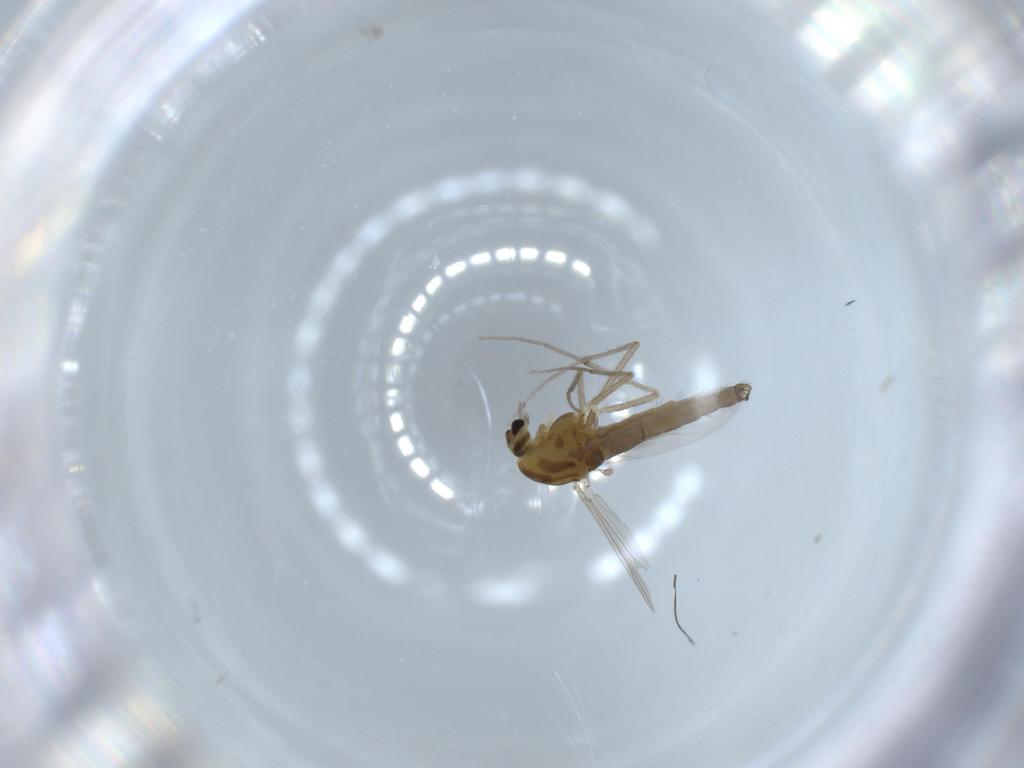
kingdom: Animalia
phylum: Arthropoda
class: Insecta
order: Diptera
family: Chironomidae
